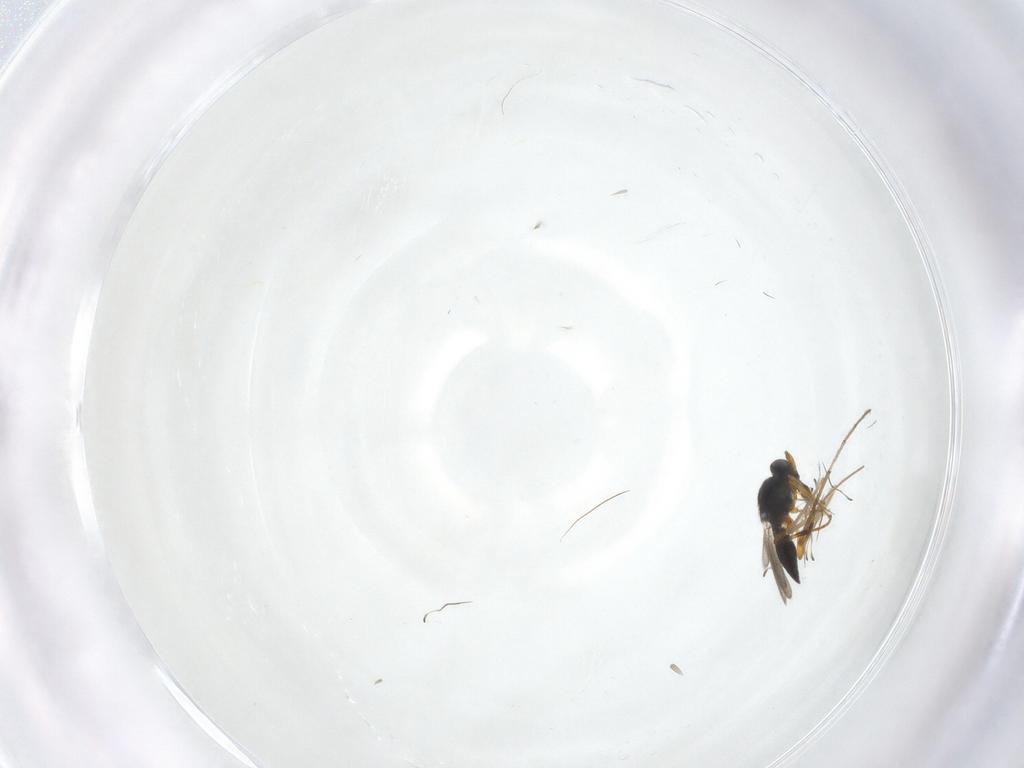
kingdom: Animalia
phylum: Arthropoda
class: Insecta
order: Hymenoptera
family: Platygastridae
